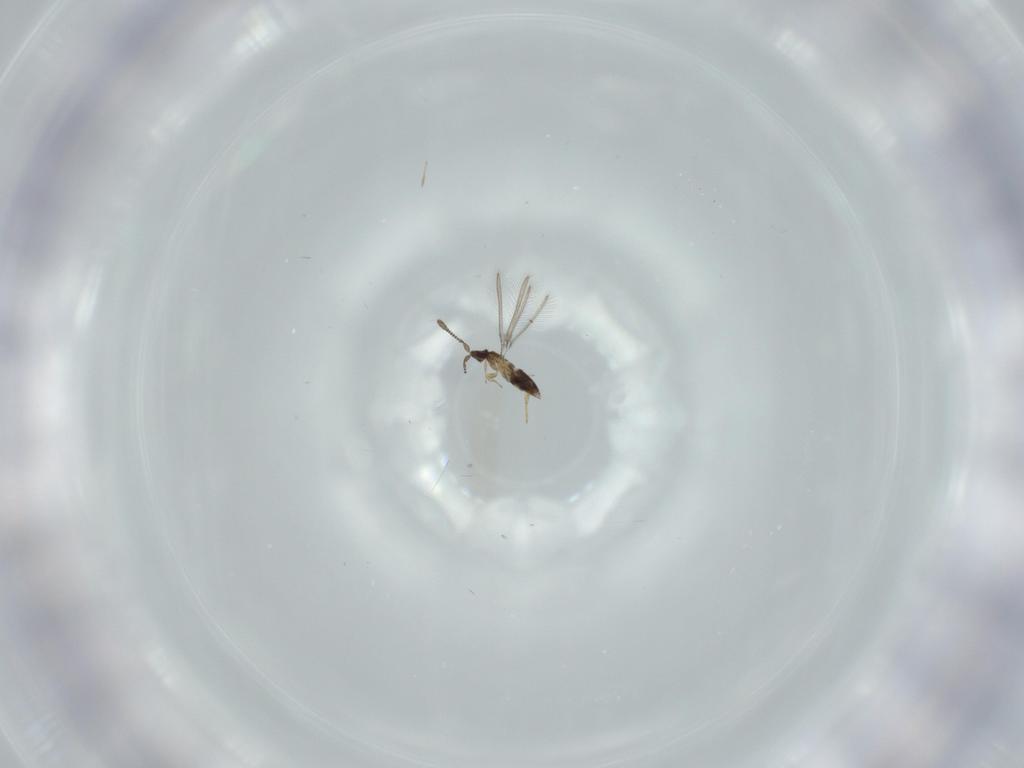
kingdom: Animalia
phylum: Arthropoda
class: Insecta
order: Hymenoptera
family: Mymaridae
